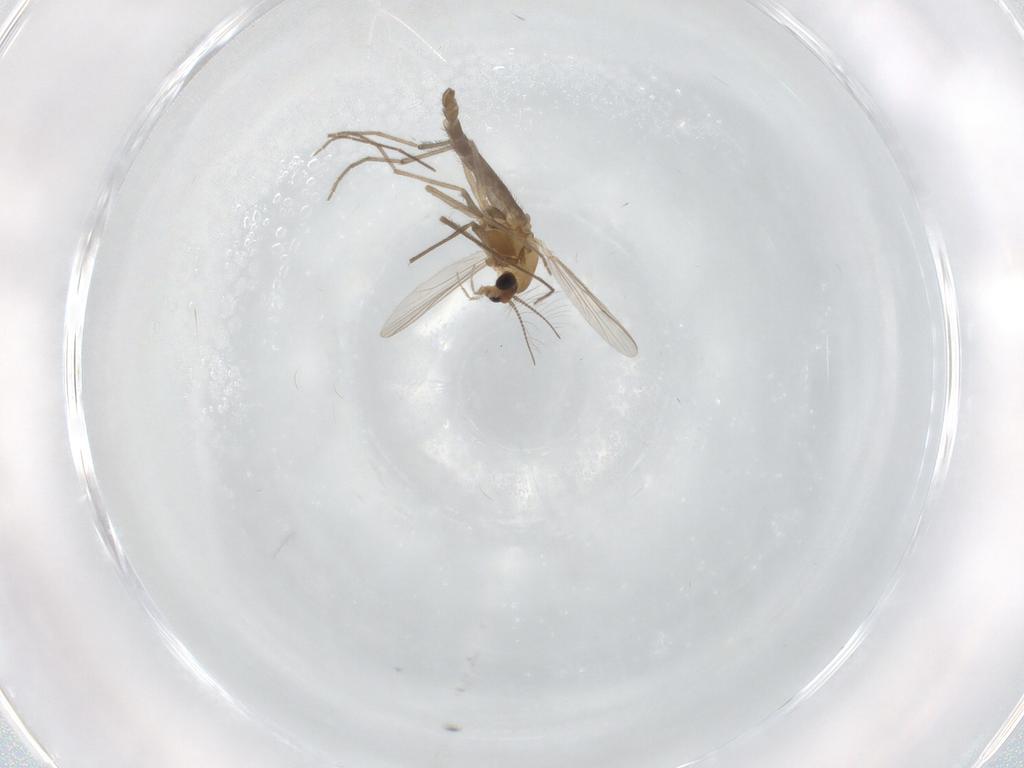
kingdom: Animalia
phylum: Arthropoda
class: Insecta
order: Diptera
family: Chironomidae
